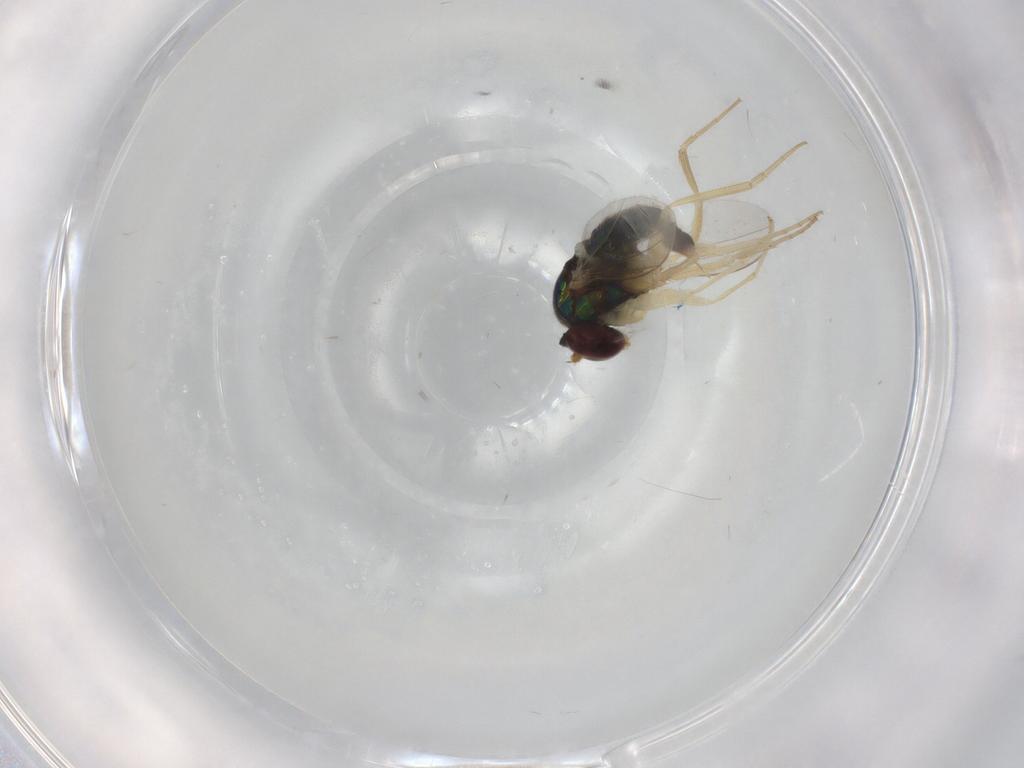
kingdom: Animalia
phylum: Arthropoda
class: Insecta
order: Diptera
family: Dolichopodidae
